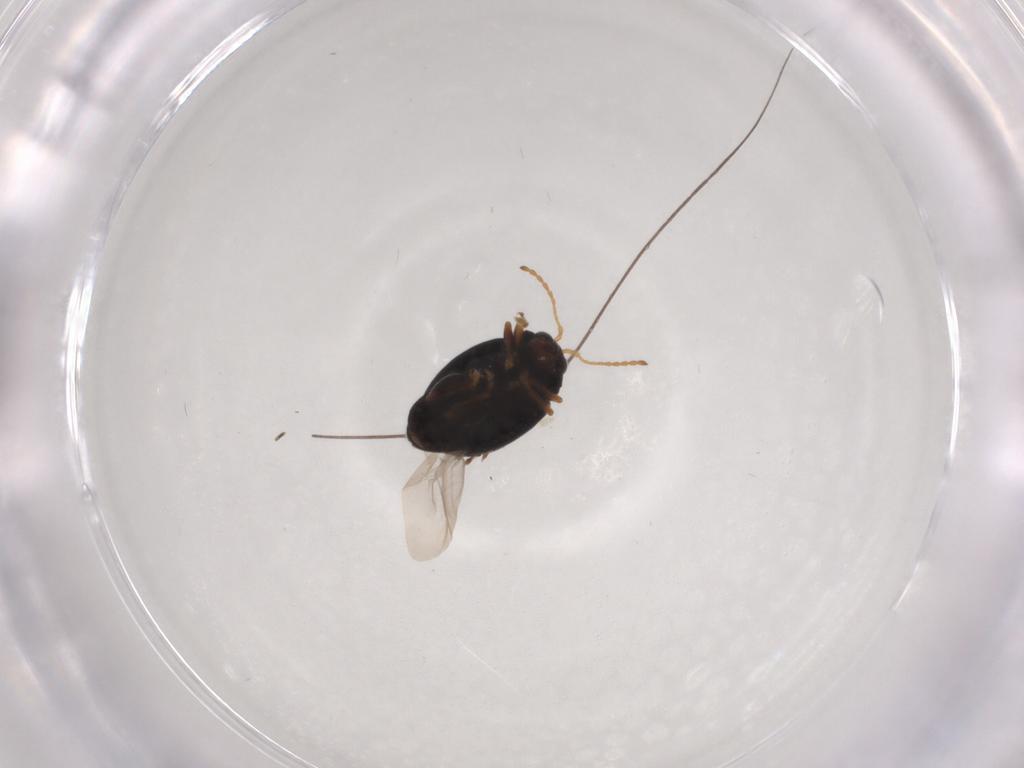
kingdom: Animalia
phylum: Arthropoda
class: Insecta
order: Coleoptera
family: Chrysomelidae
